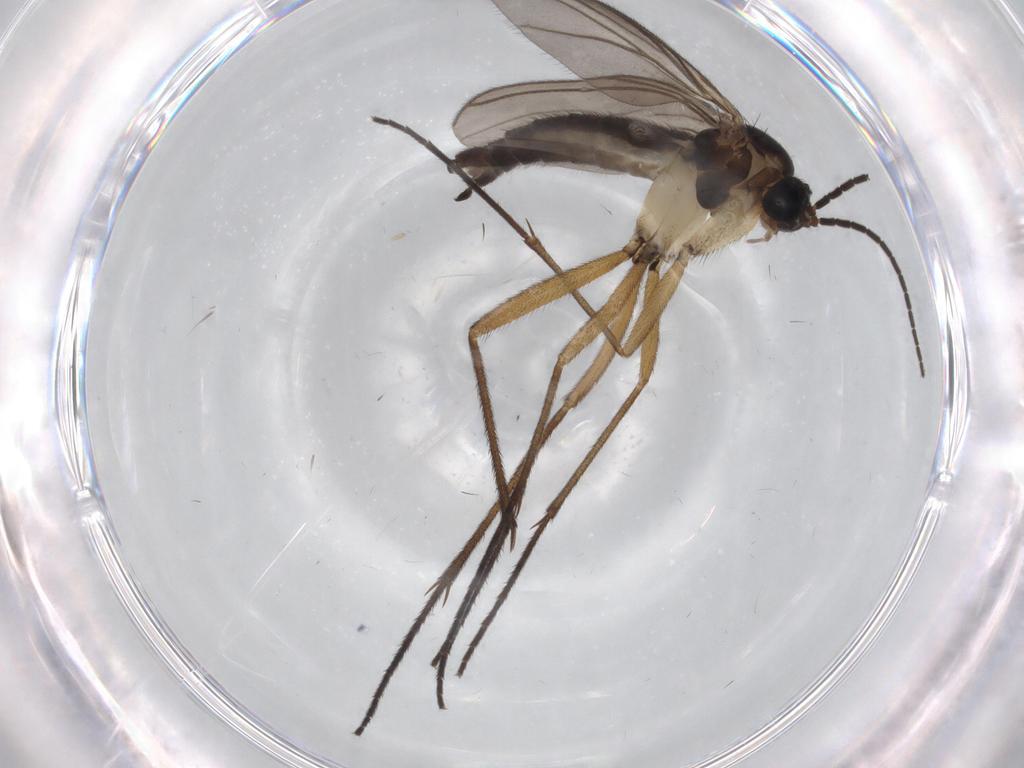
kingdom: Animalia
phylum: Arthropoda
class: Insecta
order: Diptera
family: Sciaridae
